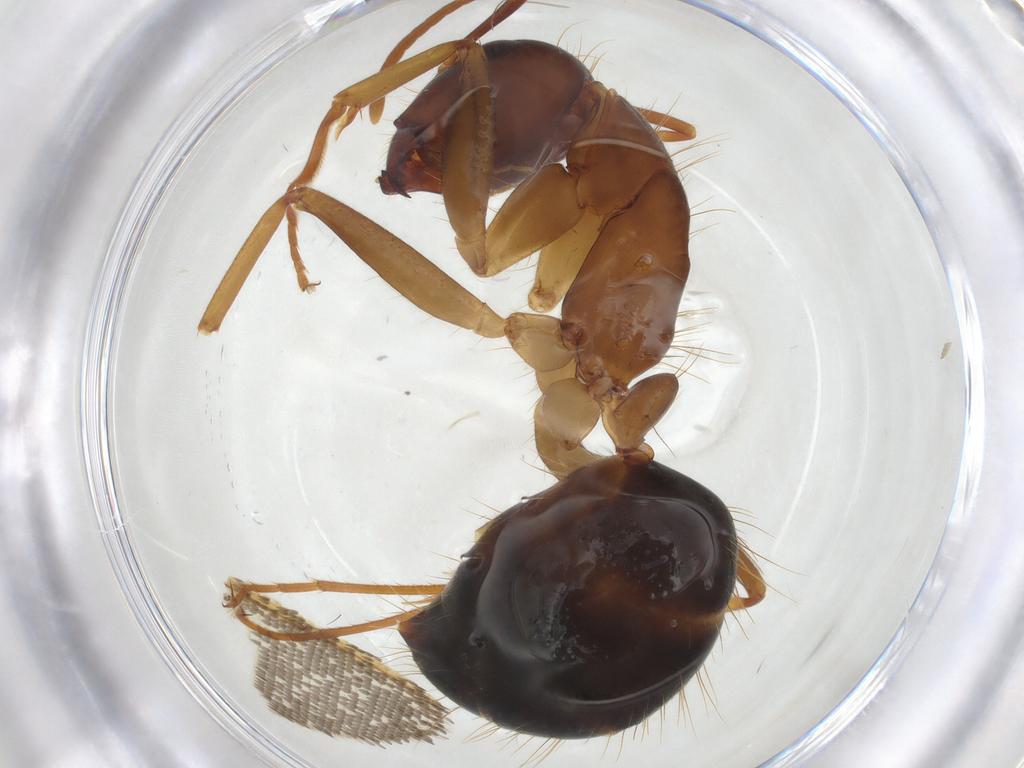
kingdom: Animalia
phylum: Arthropoda
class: Insecta
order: Hymenoptera
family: Formicidae
